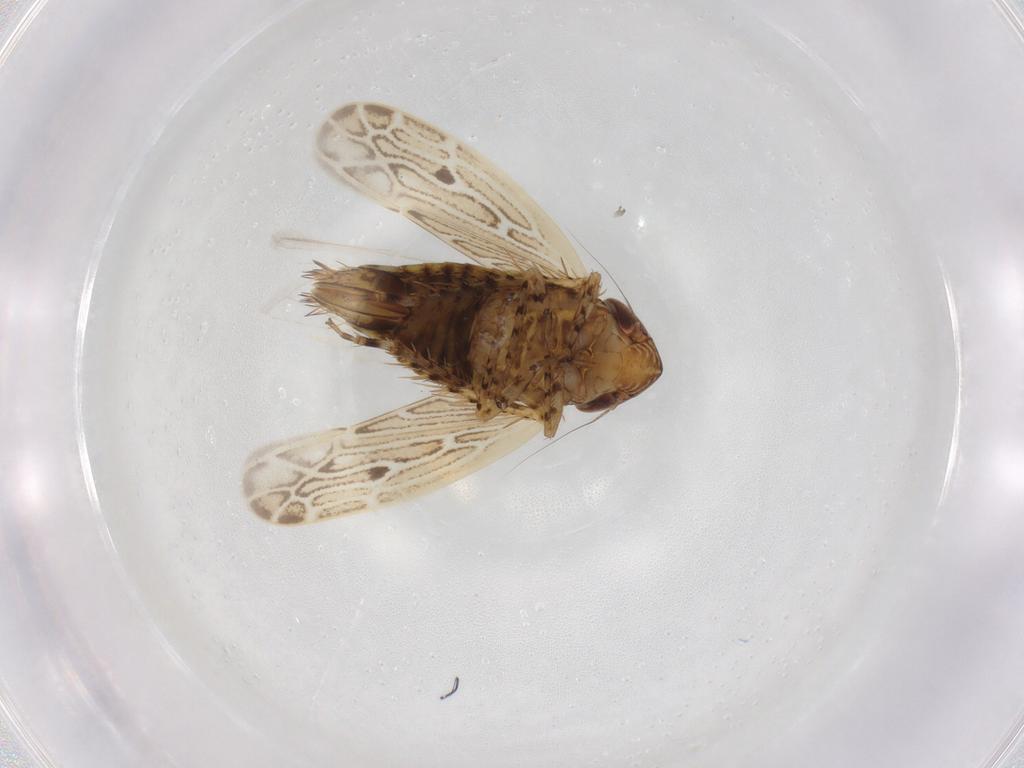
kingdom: Animalia
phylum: Arthropoda
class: Insecta
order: Hemiptera
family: Cicadellidae
